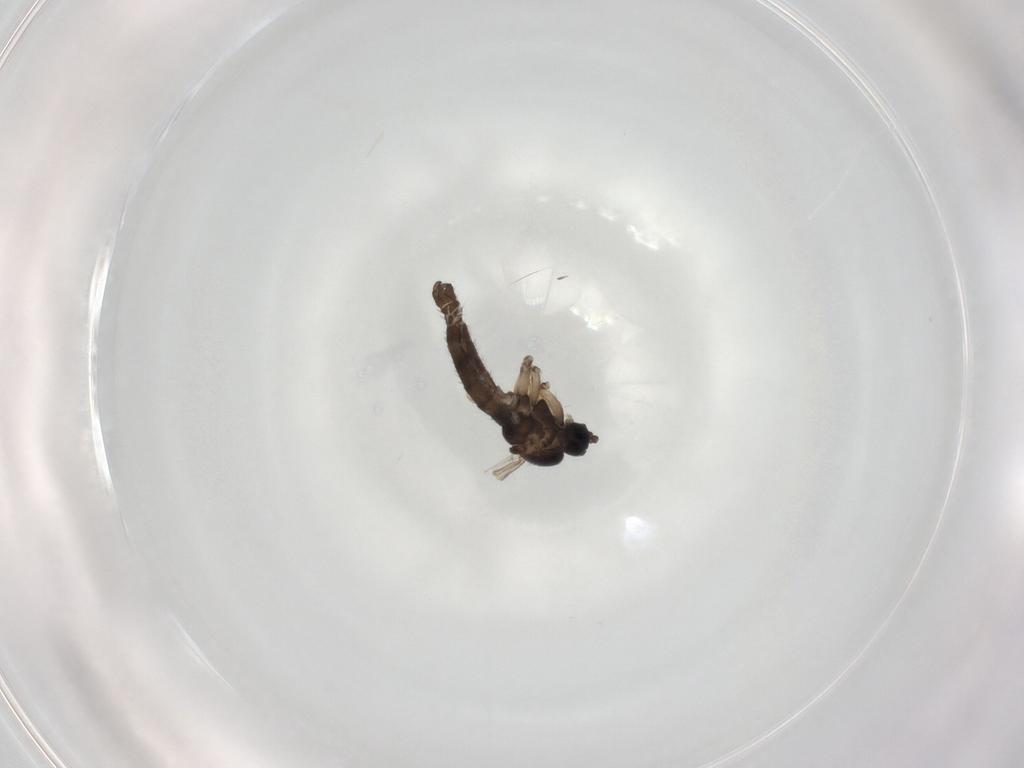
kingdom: Animalia
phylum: Arthropoda
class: Insecta
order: Diptera
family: Sciaridae
